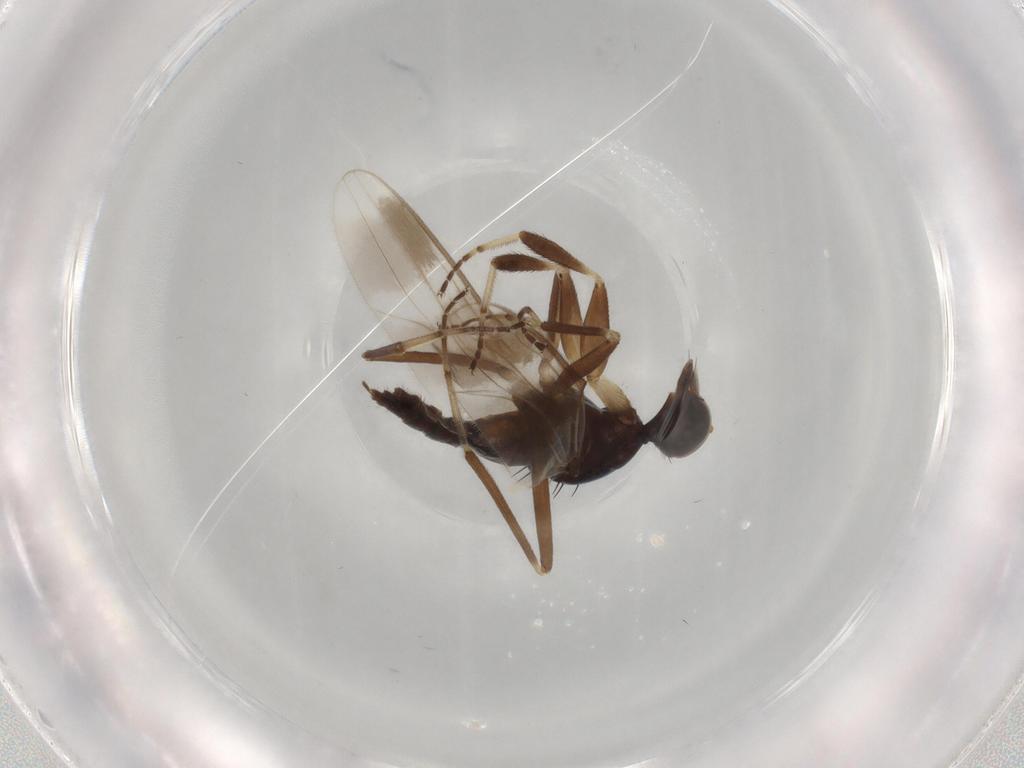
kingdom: Animalia
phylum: Arthropoda
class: Insecta
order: Diptera
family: Hybotidae
